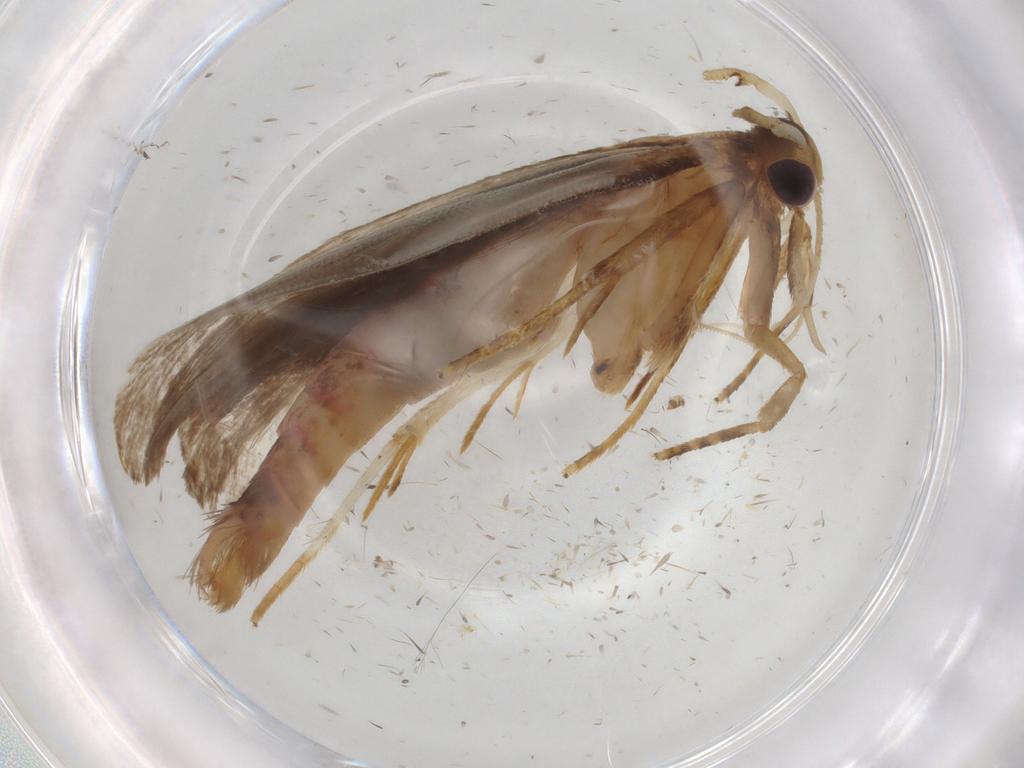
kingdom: Animalia
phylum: Arthropoda
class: Insecta
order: Lepidoptera
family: Autostichidae
